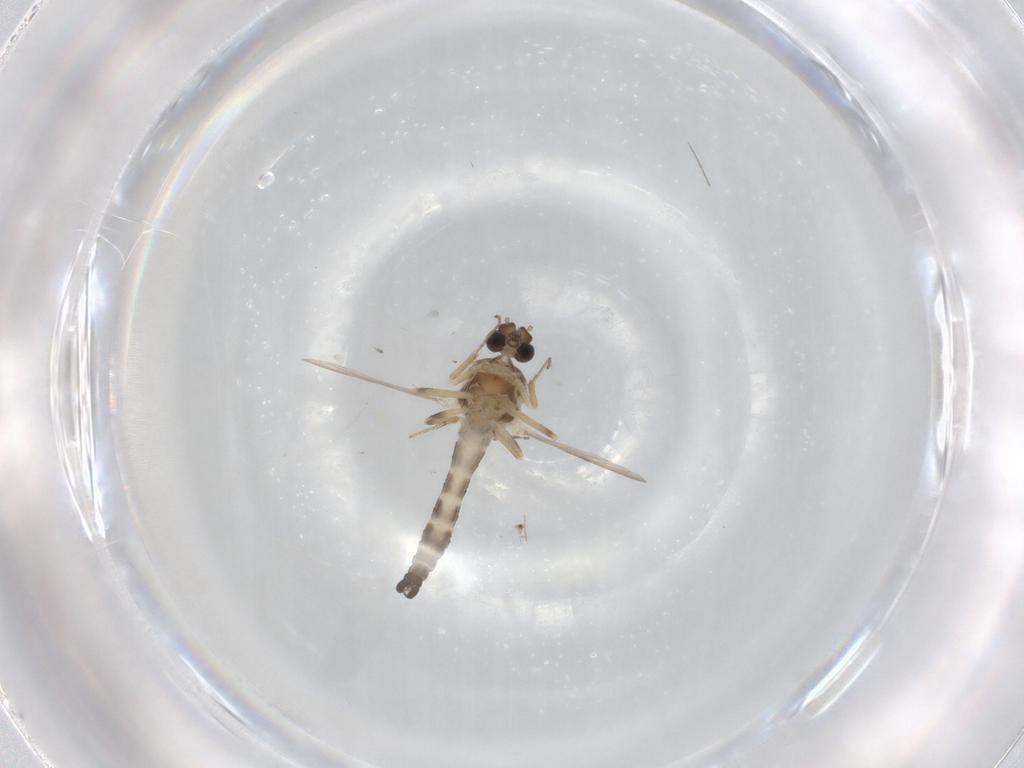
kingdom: Animalia
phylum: Arthropoda
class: Insecta
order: Diptera
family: Ceratopogonidae
